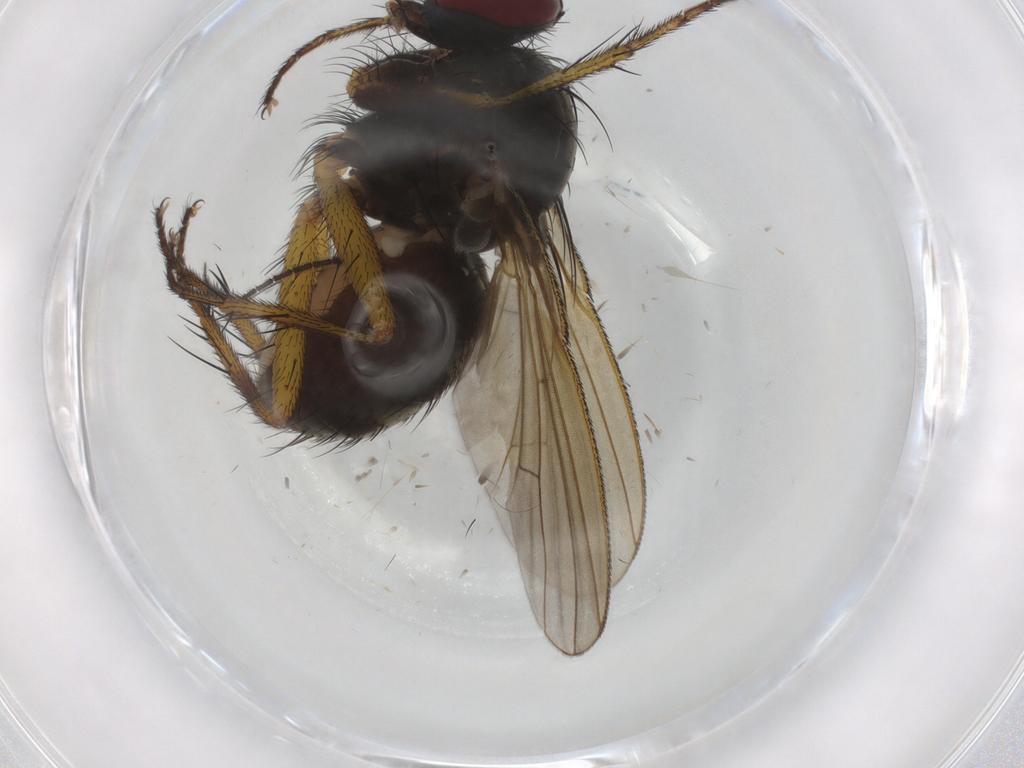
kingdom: Animalia
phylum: Arthropoda
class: Insecta
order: Diptera
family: Muscidae
